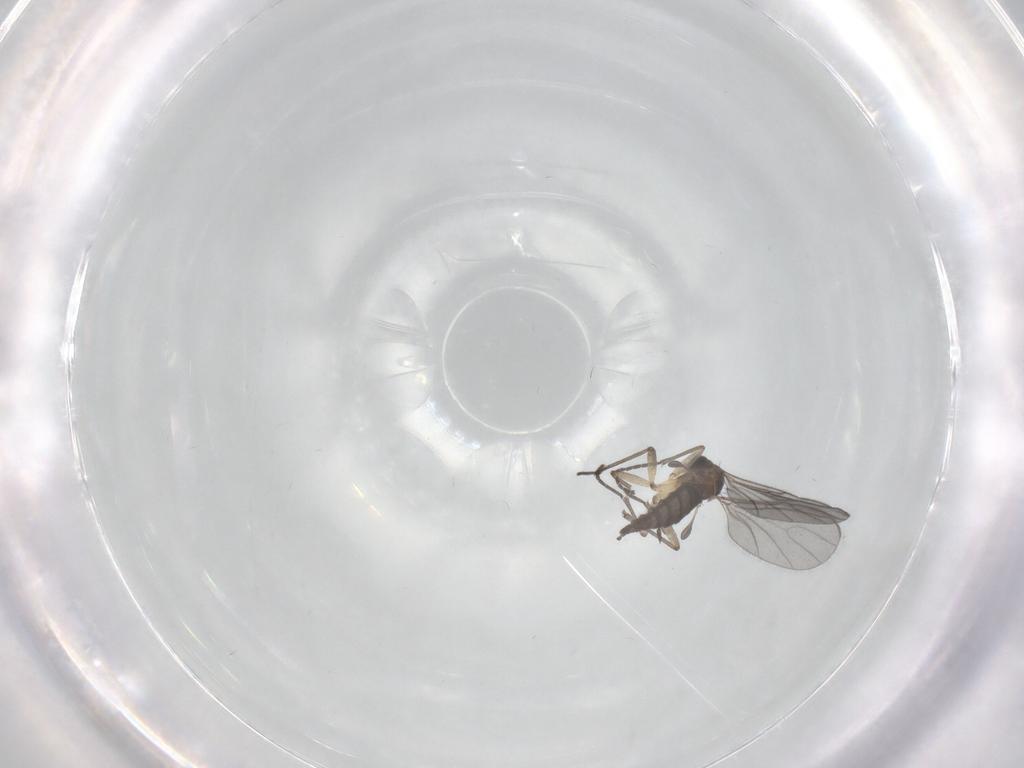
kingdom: Animalia
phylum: Arthropoda
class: Insecta
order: Diptera
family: Sciaridae
